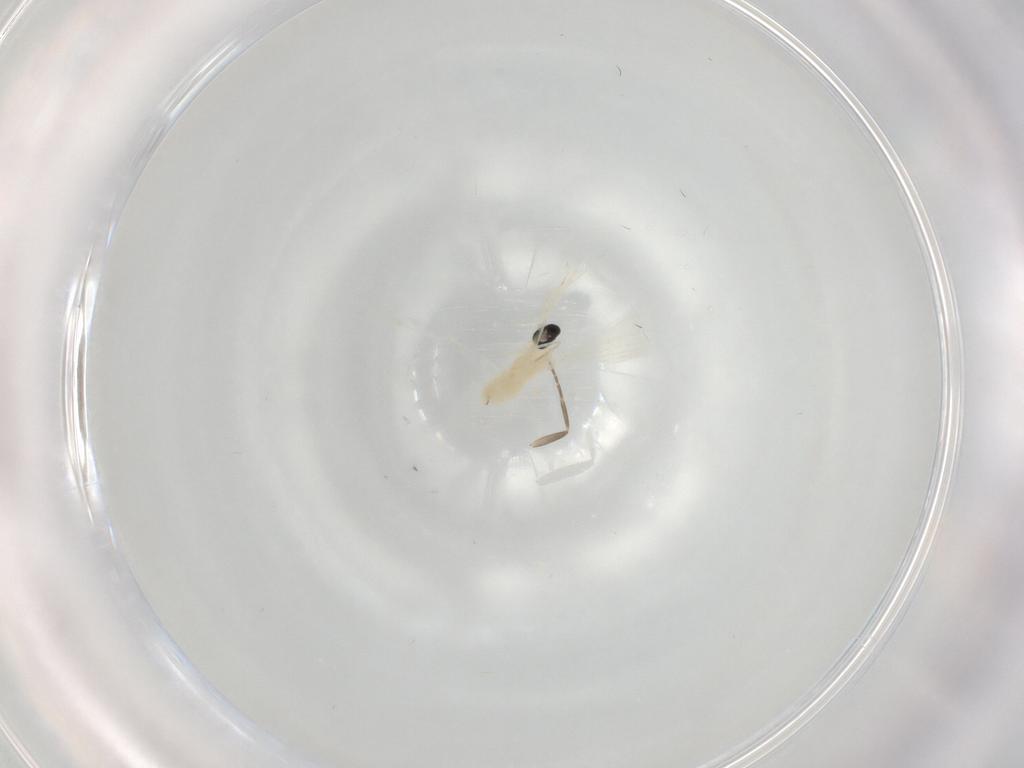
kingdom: Animalia
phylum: Arthropoda
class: Insecta
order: Diptera
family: Cecidomyiidae
